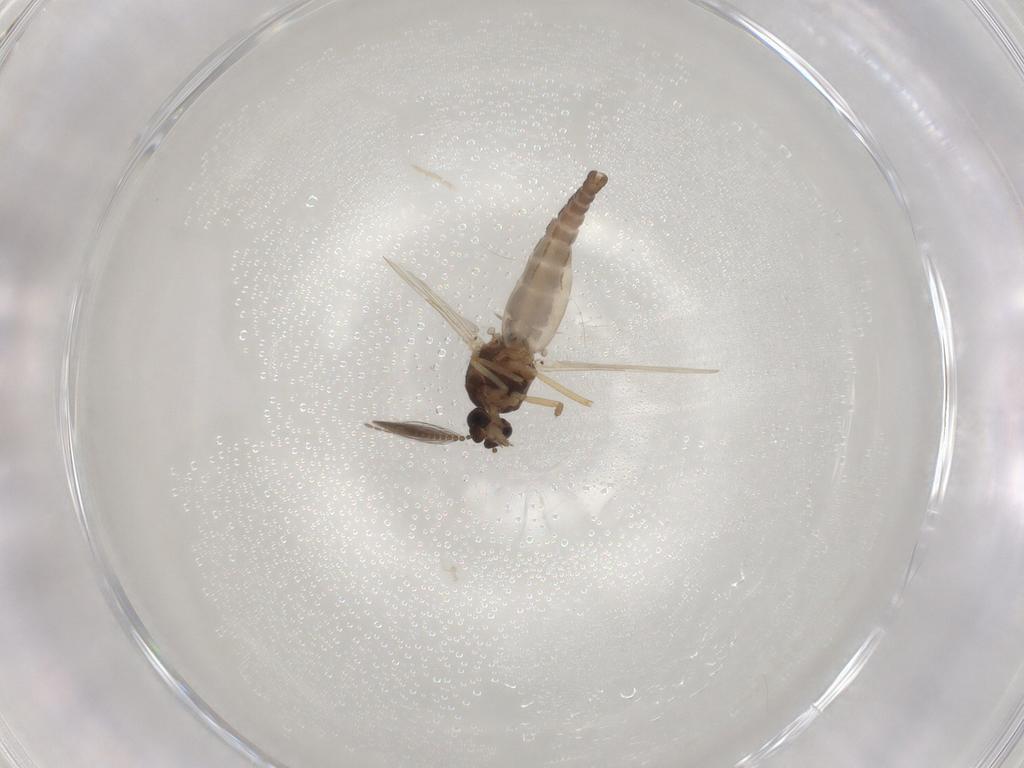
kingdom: Animalia
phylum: Arthropoda
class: Insecta
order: Diptera
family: Ceratopogonidae
